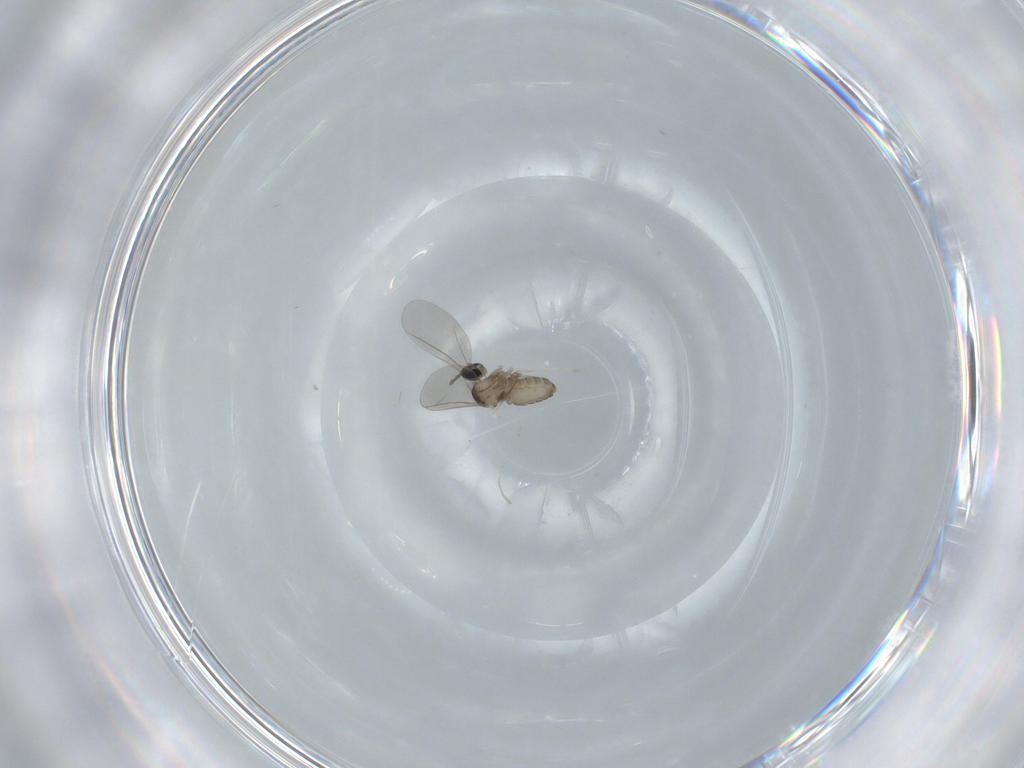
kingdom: Animalia
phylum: Arthropoda
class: Insecta
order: Diptera
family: Cecidomyiidae
